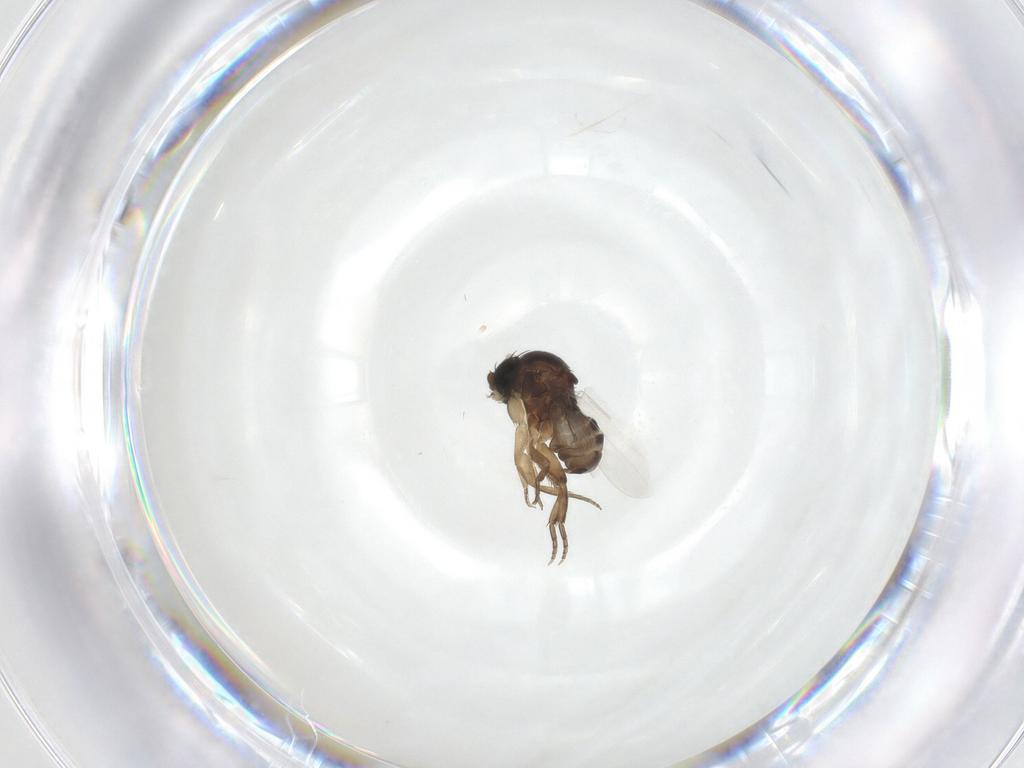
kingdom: Animalia
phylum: Arthropoda
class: Insecta
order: Diptera
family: Phoridae
